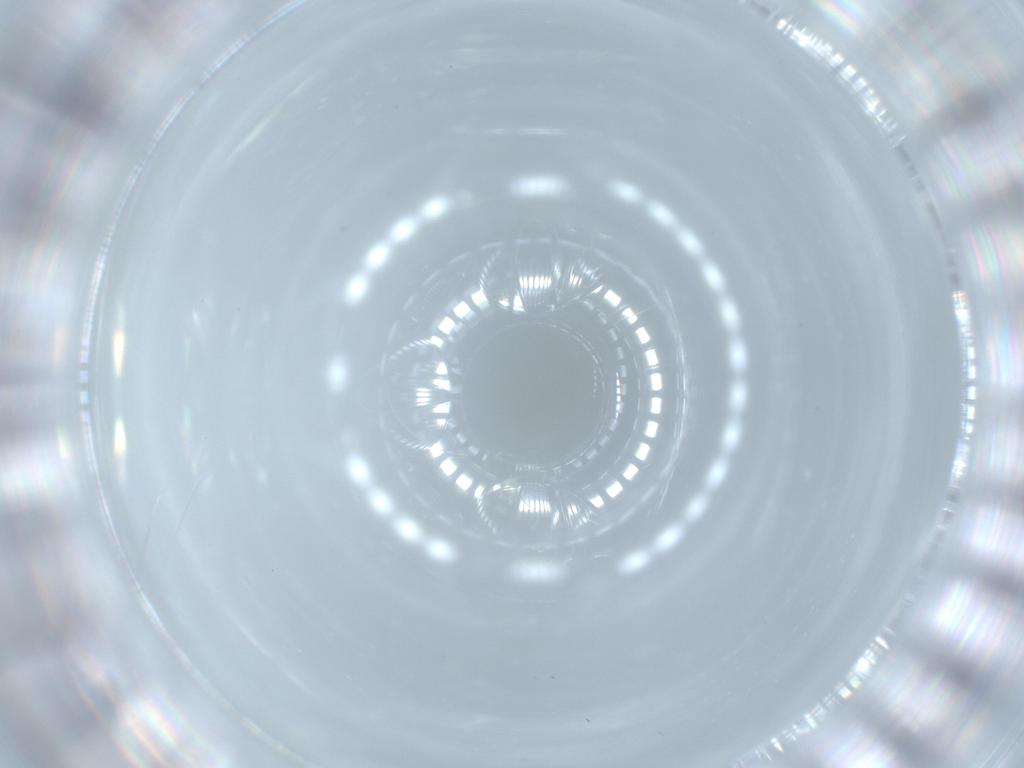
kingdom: Animalia
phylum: Arthropoda
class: Insecta
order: Diptera
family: Cecidomyiidae
